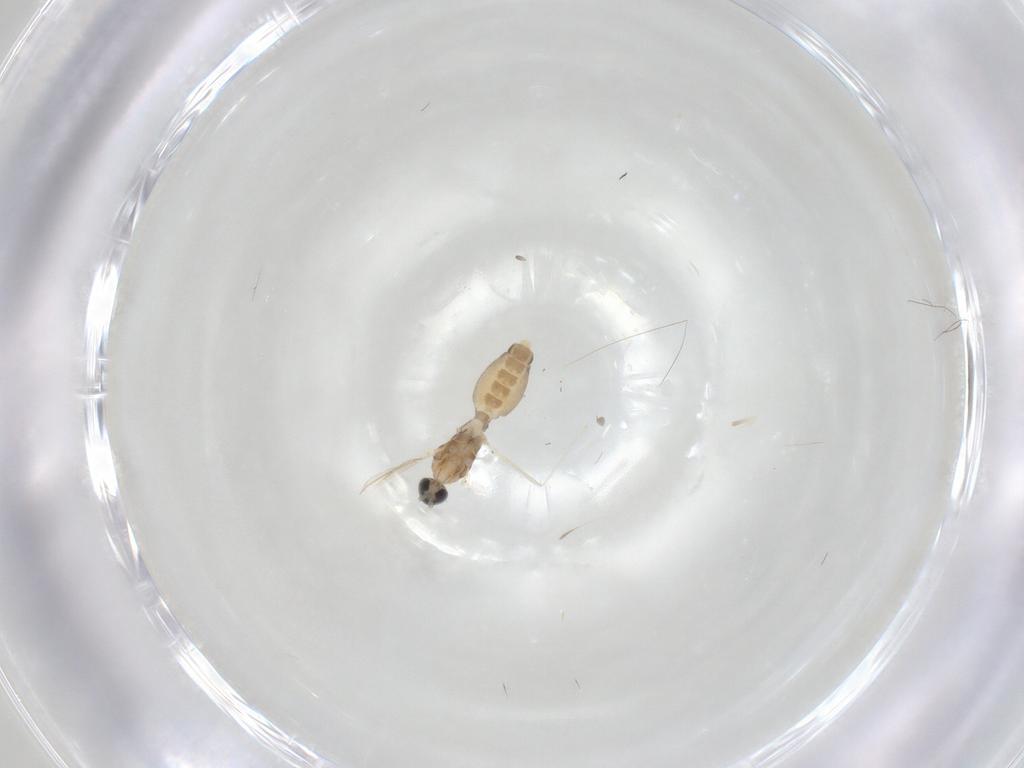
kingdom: Animalia
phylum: Arthropoda
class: Insecta
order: Diptera
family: Cecidomyiidae
